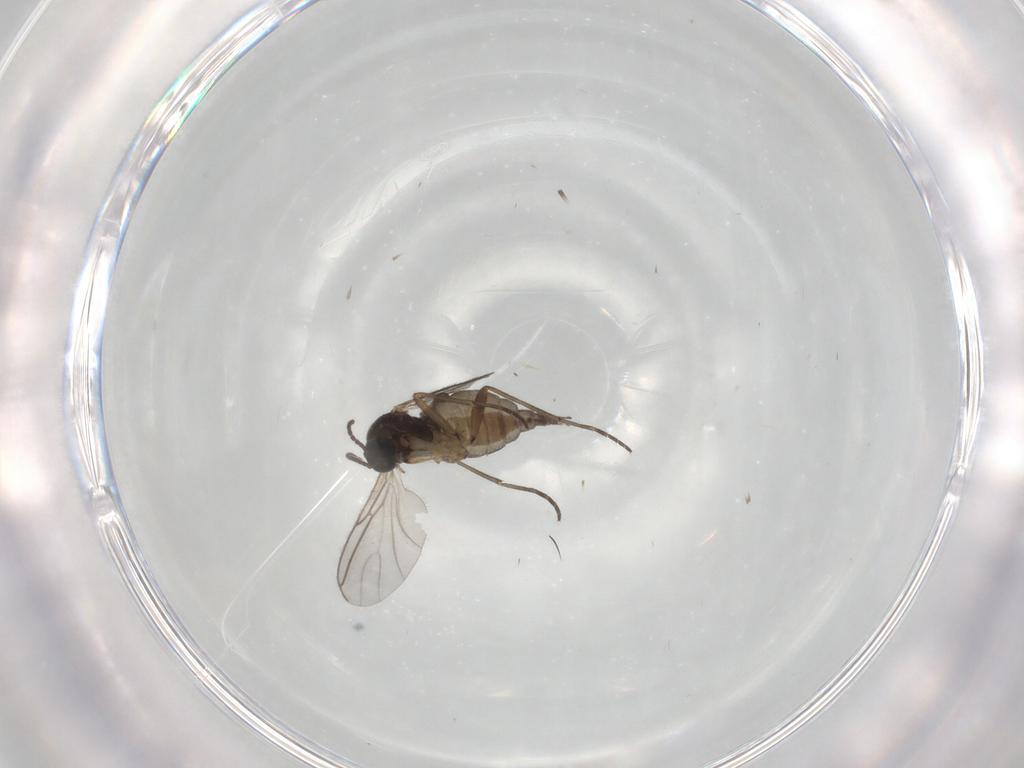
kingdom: Animalia
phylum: Arthropoda
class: Insecta
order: Diptera
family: Sciaridae
